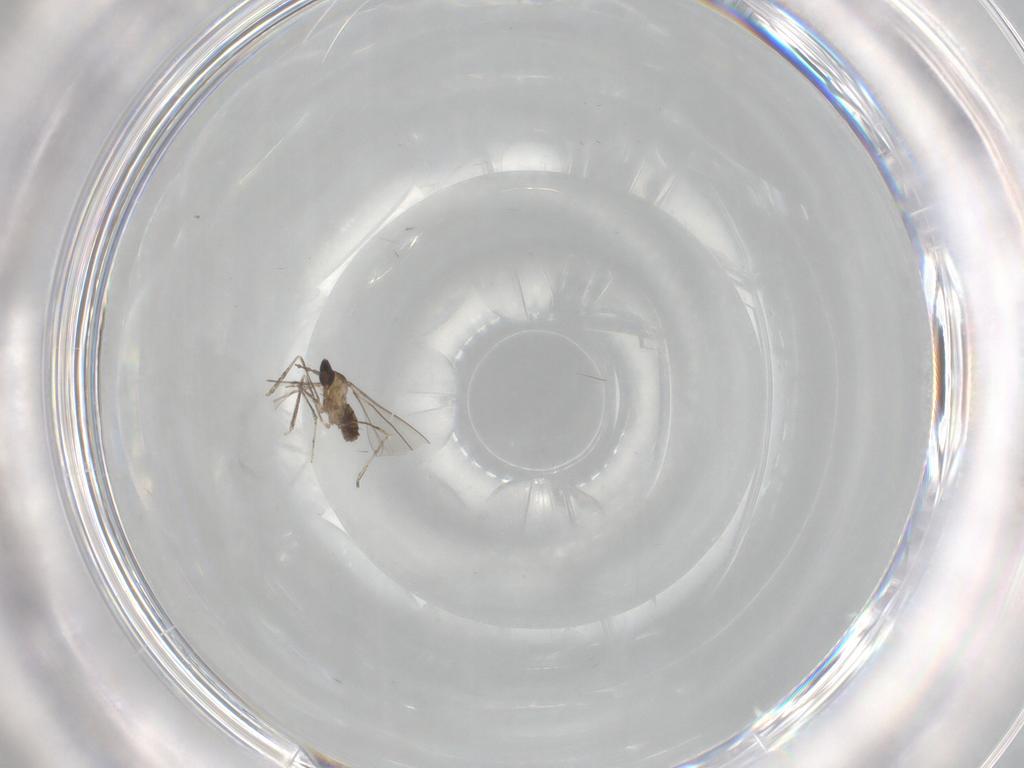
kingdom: Animalia
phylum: Arthropoda
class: Insecta
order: Diptera
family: Cecidomyiidae
